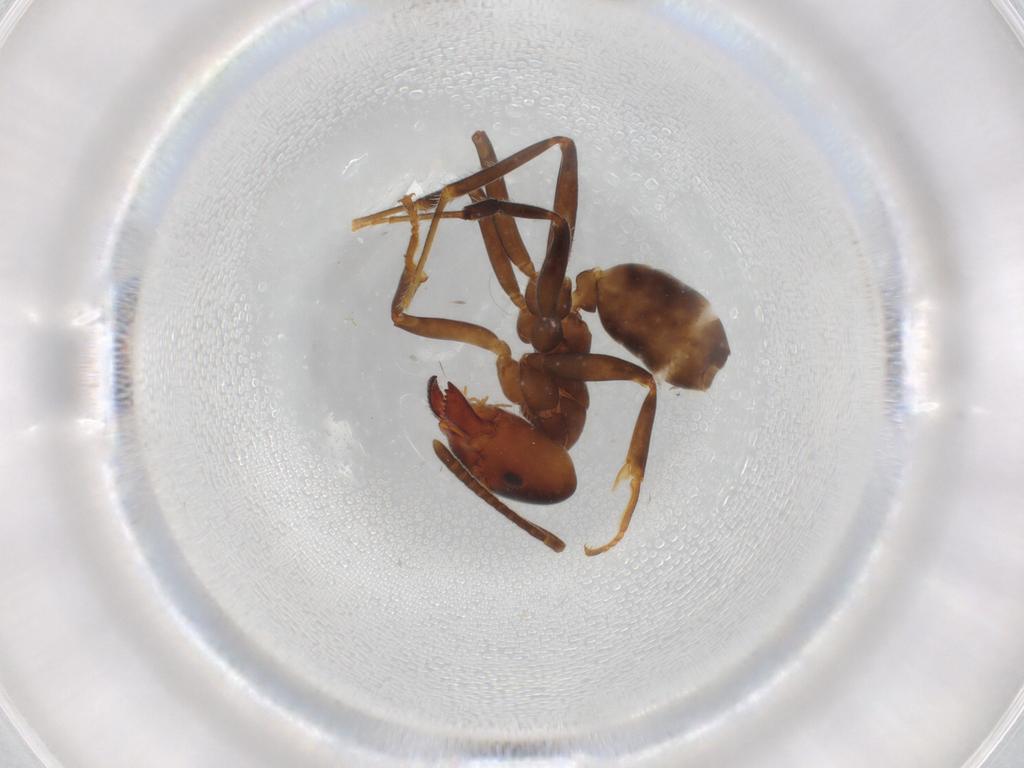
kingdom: Animalia
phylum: Arthropoda
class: Insecta
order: Hymenoptera
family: Formicidae
